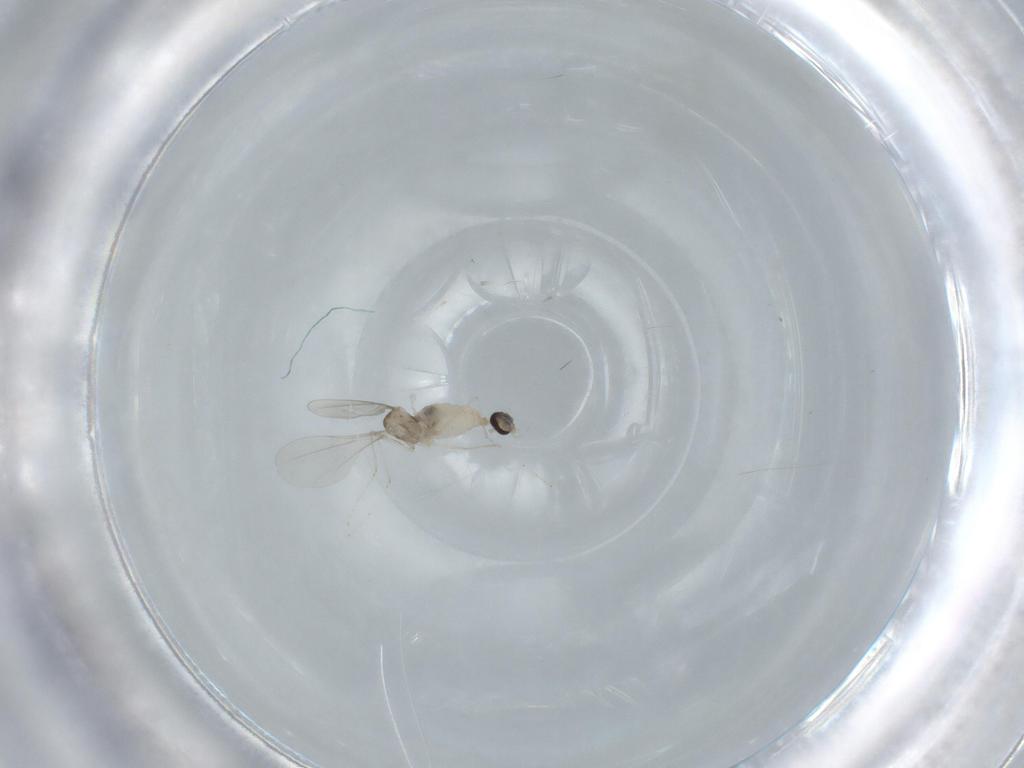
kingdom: Animalia
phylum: Arthropoda
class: Insecta
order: Diptera
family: Cecidomyiidae
